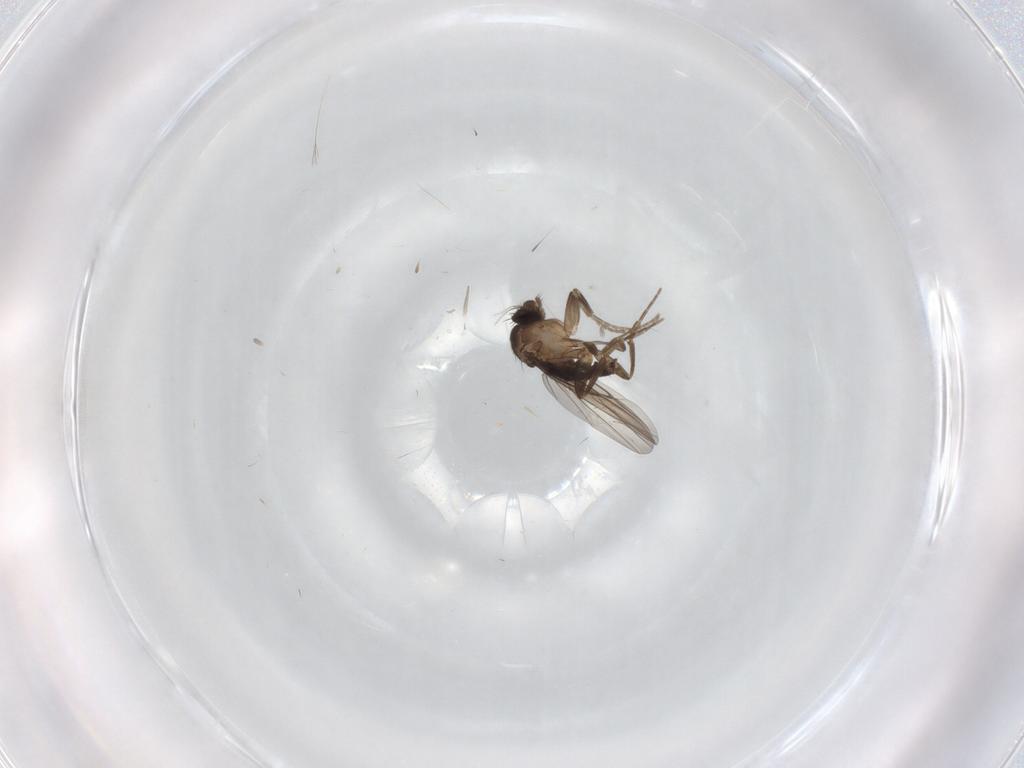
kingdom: Animalia
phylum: Arthropoda
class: Insecta
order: Diptera
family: Phoridae
